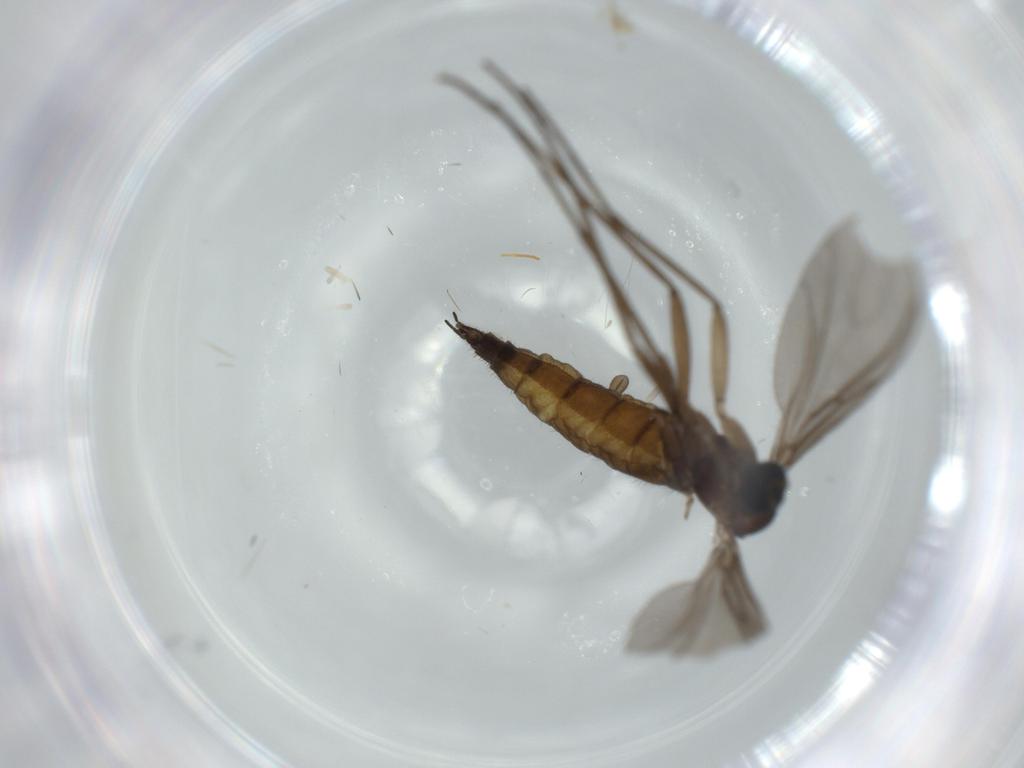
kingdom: Animalia
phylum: Arthropoda
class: Insecta
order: Diptera
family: Sciaridae
